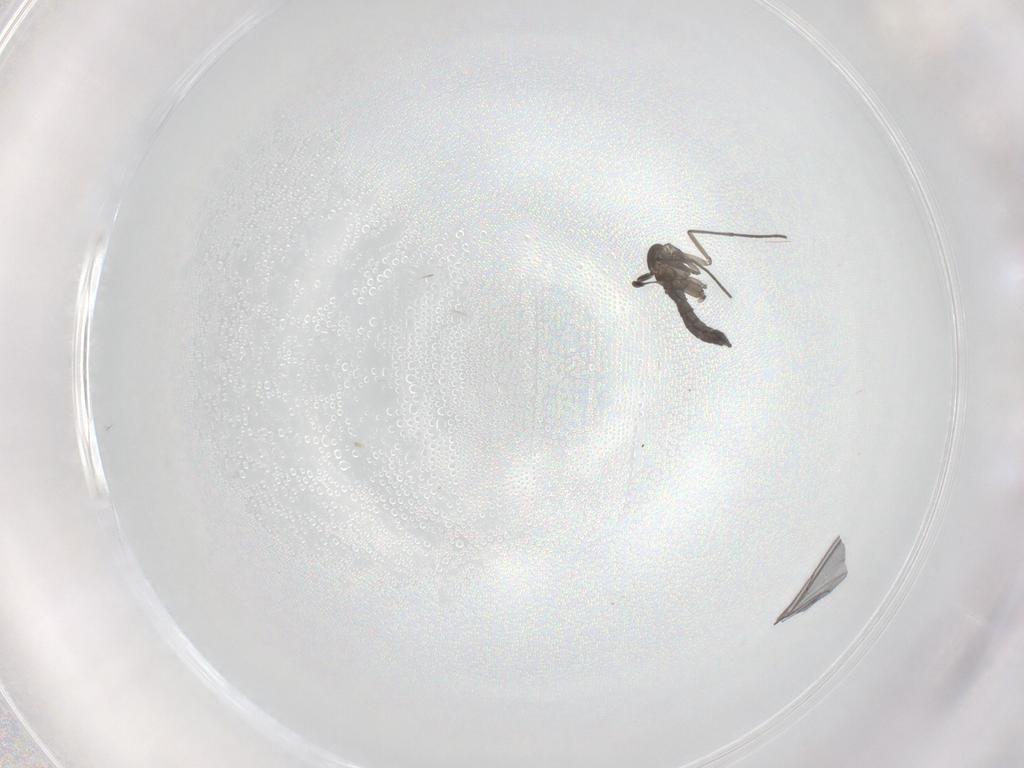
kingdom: Animalia
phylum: Arthropoda
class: Insecta
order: Diptera
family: Sciaridae
